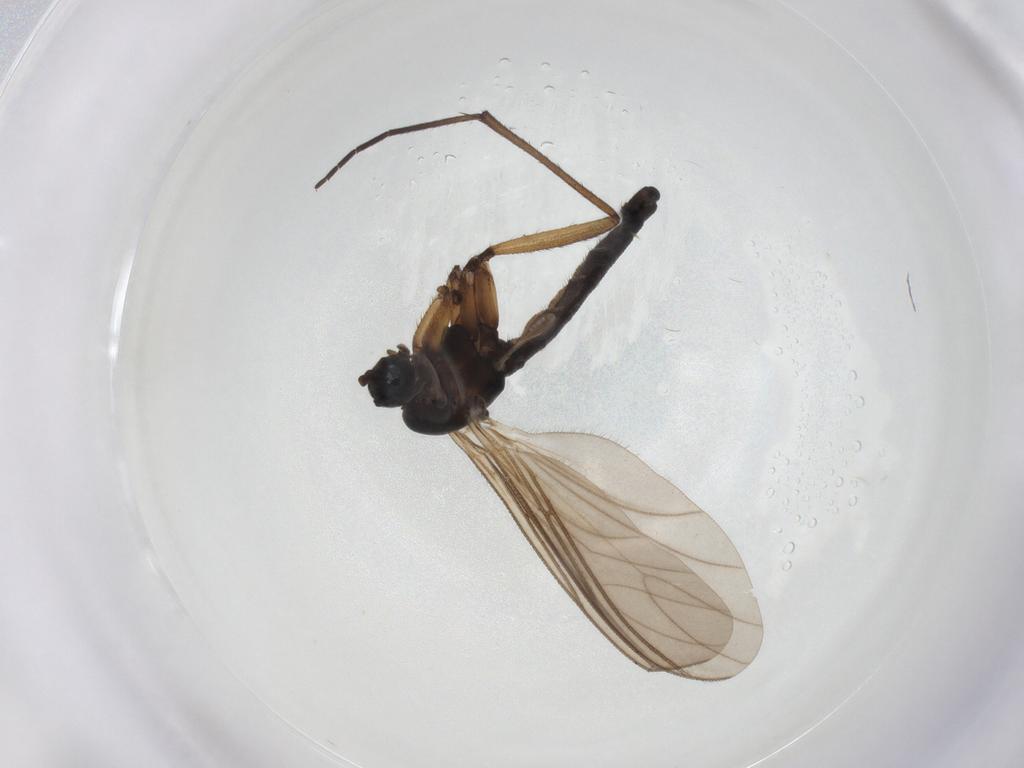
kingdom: Animalia
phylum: Arthropoda
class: Insecta
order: Diptera
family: Sciaridae
